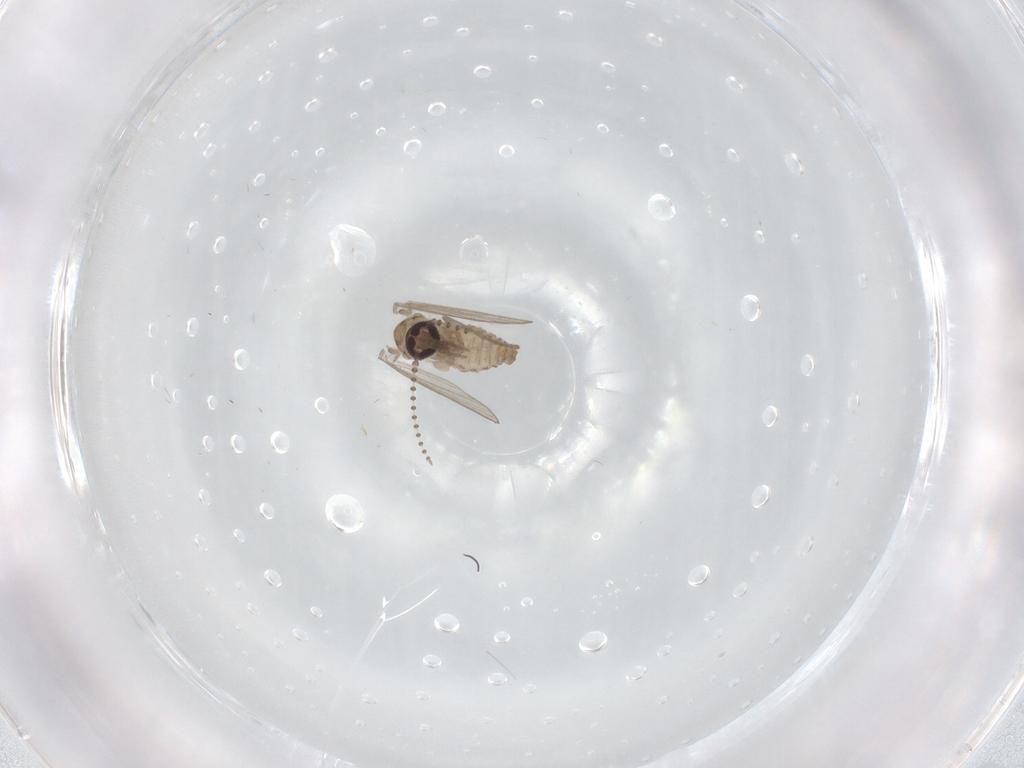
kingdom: Animalia
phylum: Arthropoda
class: Insecta
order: Diptera
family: Psychodidae
